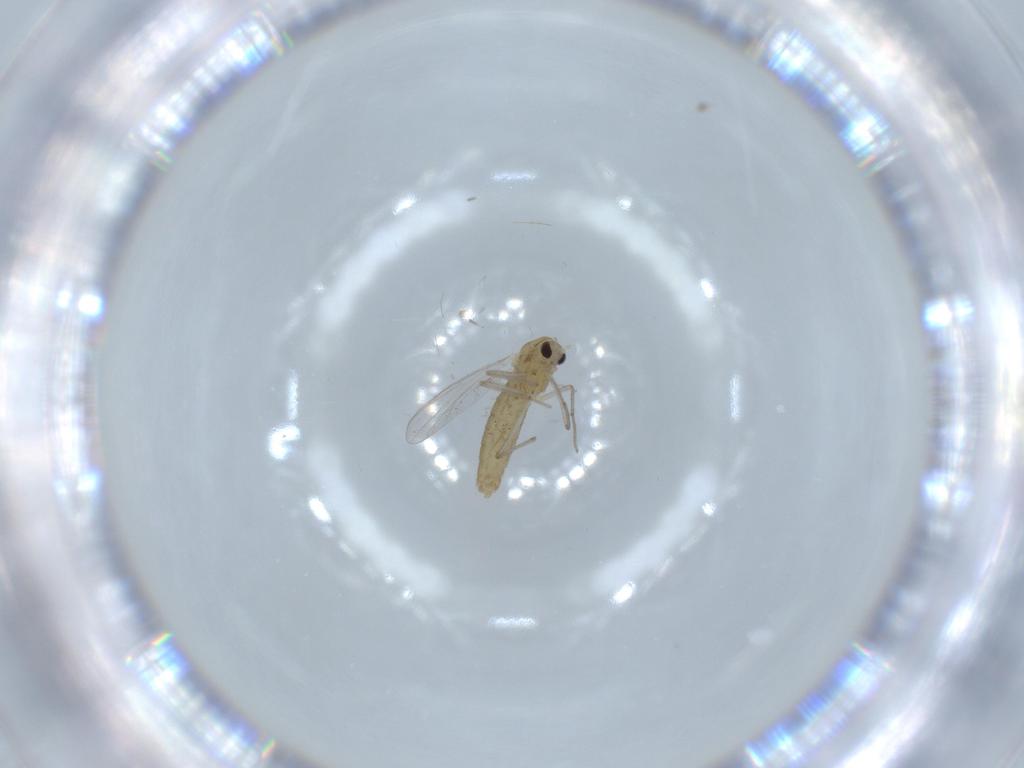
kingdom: Animalia
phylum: Arthropoda
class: Insecta
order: Diptera
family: Chironomidae
